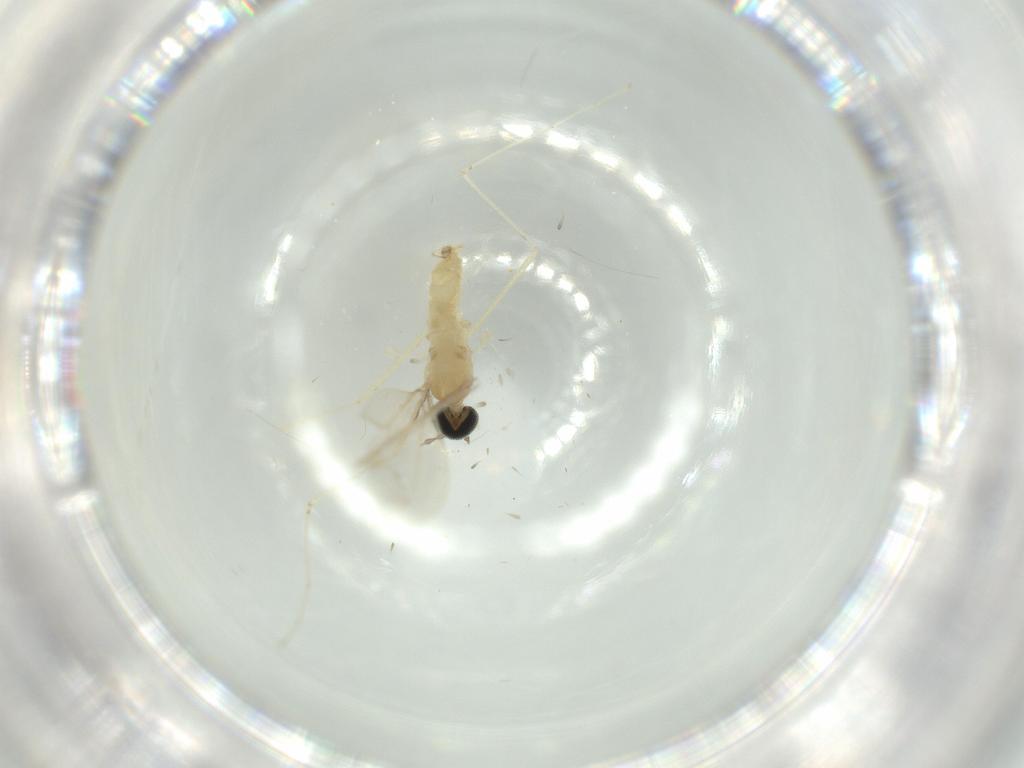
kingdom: Animalia
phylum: Arthropoda
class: Insecta
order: Diptera
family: Cecidomyiidae
